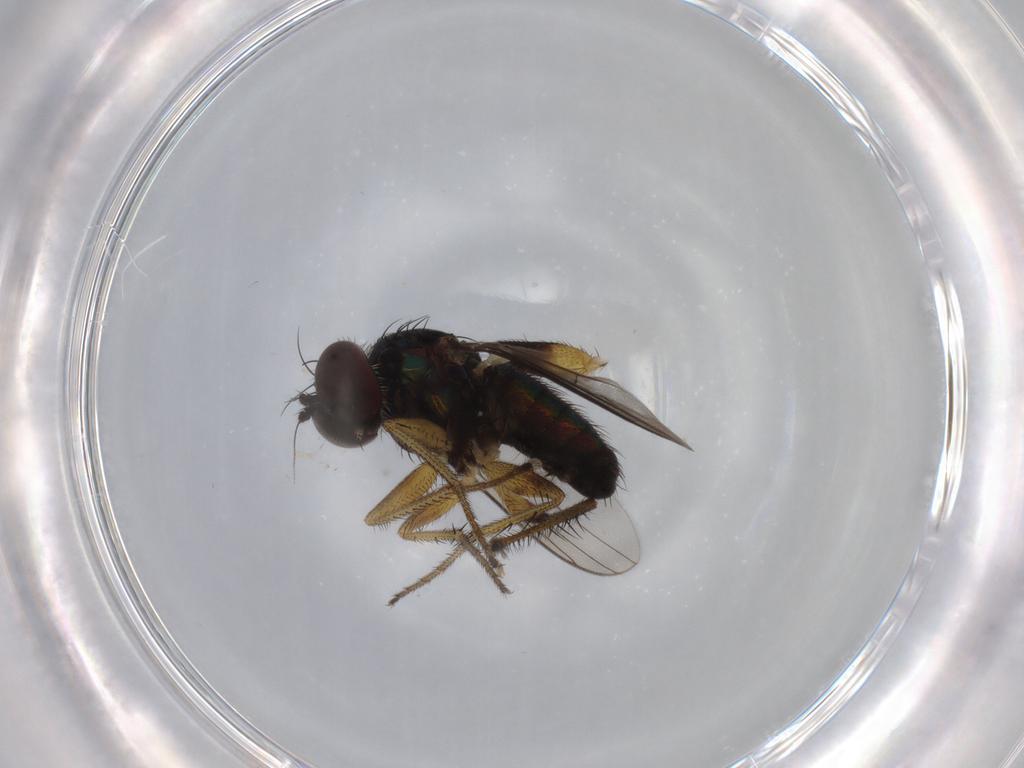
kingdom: Animalia
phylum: Arthropoda
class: Insecta
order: Diptera
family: Dolichopodidae
